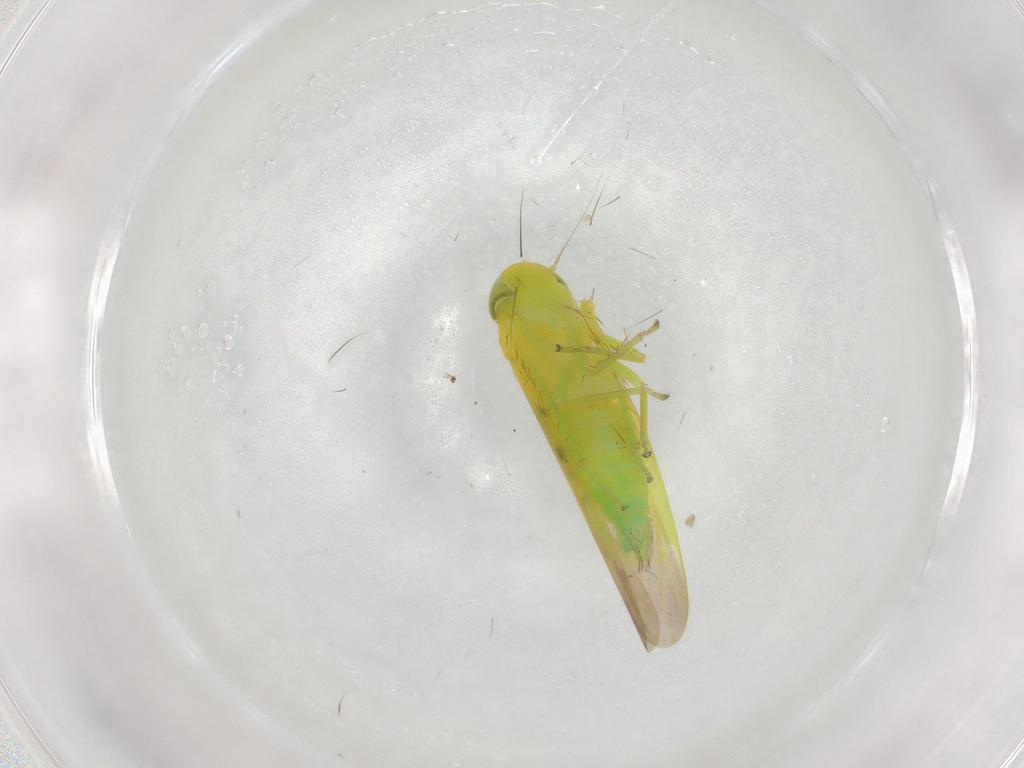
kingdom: Animalia
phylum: Arthropoda
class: Insecta
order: Hemiptera
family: Cicadellidae
